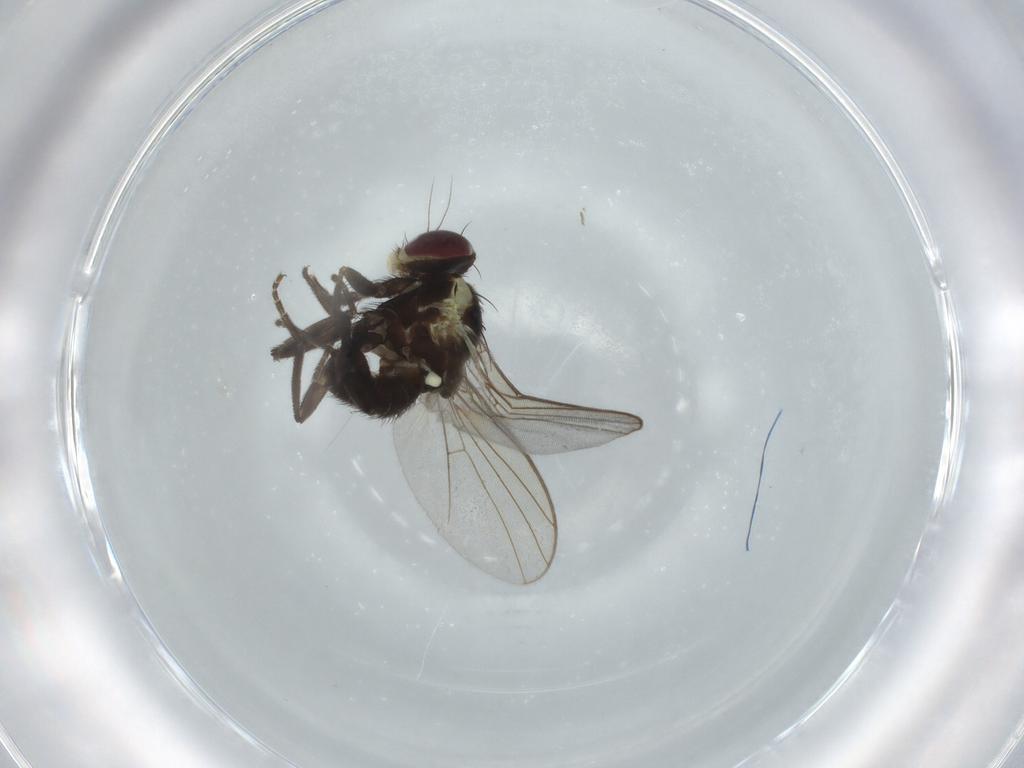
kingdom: Animalia
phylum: Arthropoda
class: Insecta
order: Diptera
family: Agromyzidae
